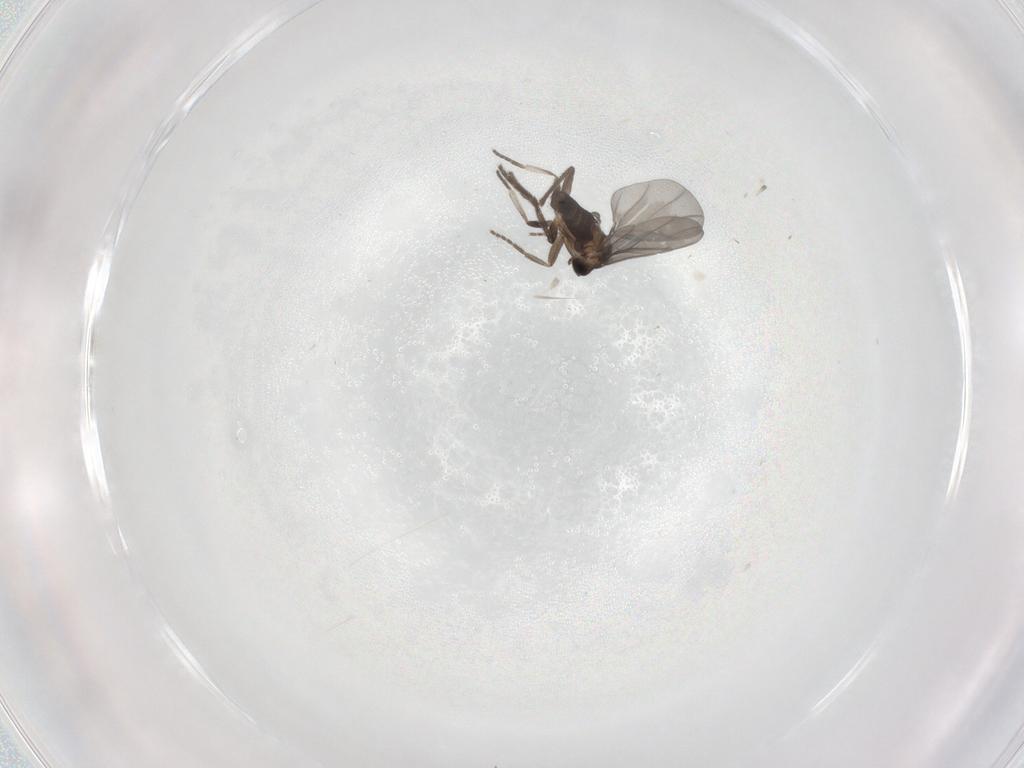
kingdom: Animalia
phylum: Arthropoda
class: Insecta
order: Diptera
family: Phoridae
